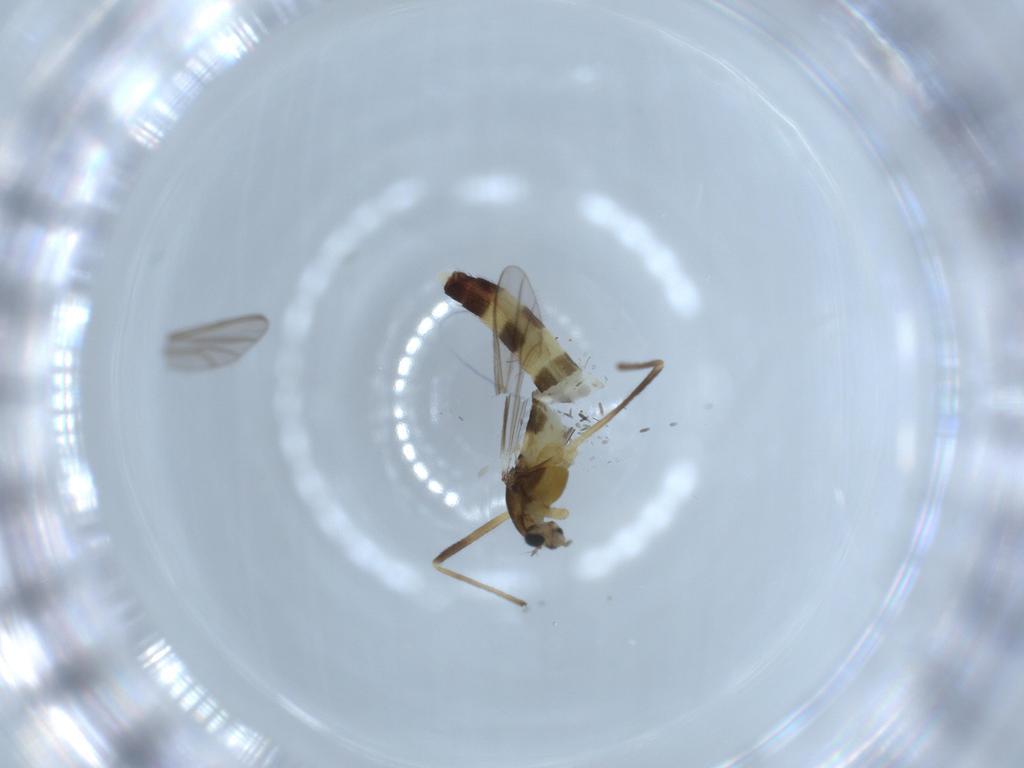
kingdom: Animalia
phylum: Arthropoda
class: Insecta
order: Diptera
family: Chironomidae
